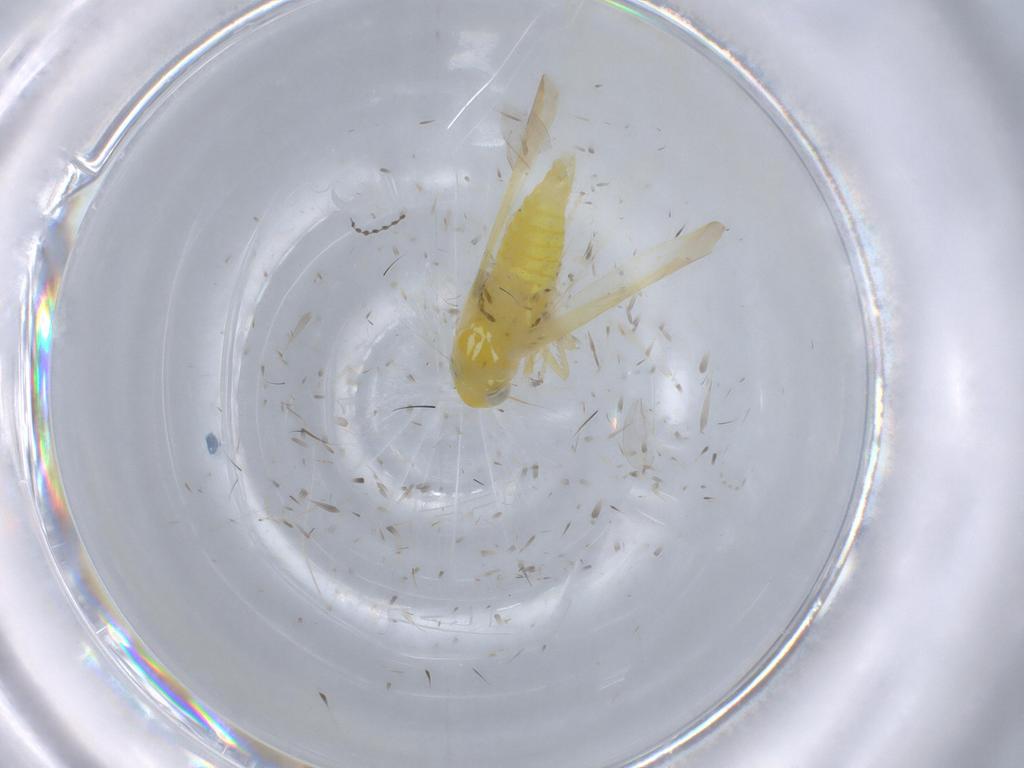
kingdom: Animalia
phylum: Arthropoda
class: Insecta
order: Hemiptera
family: Cicadellidae
